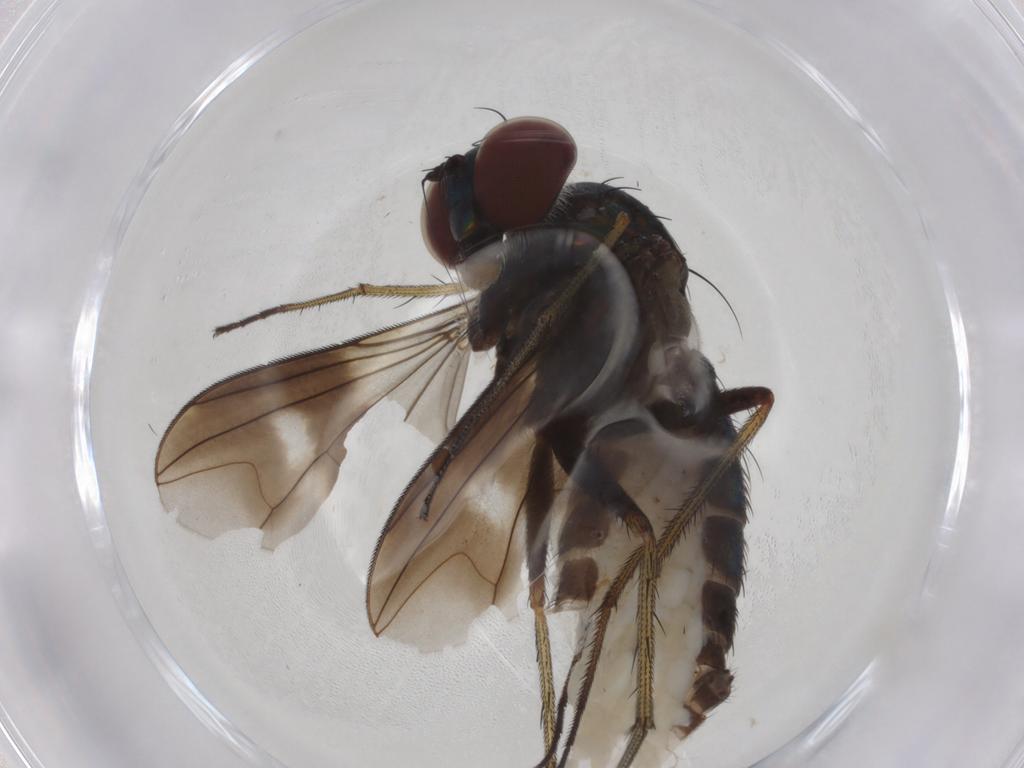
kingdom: Animalia
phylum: Arthropoda
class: Insecta
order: Diptera
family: Dolichopodidae
